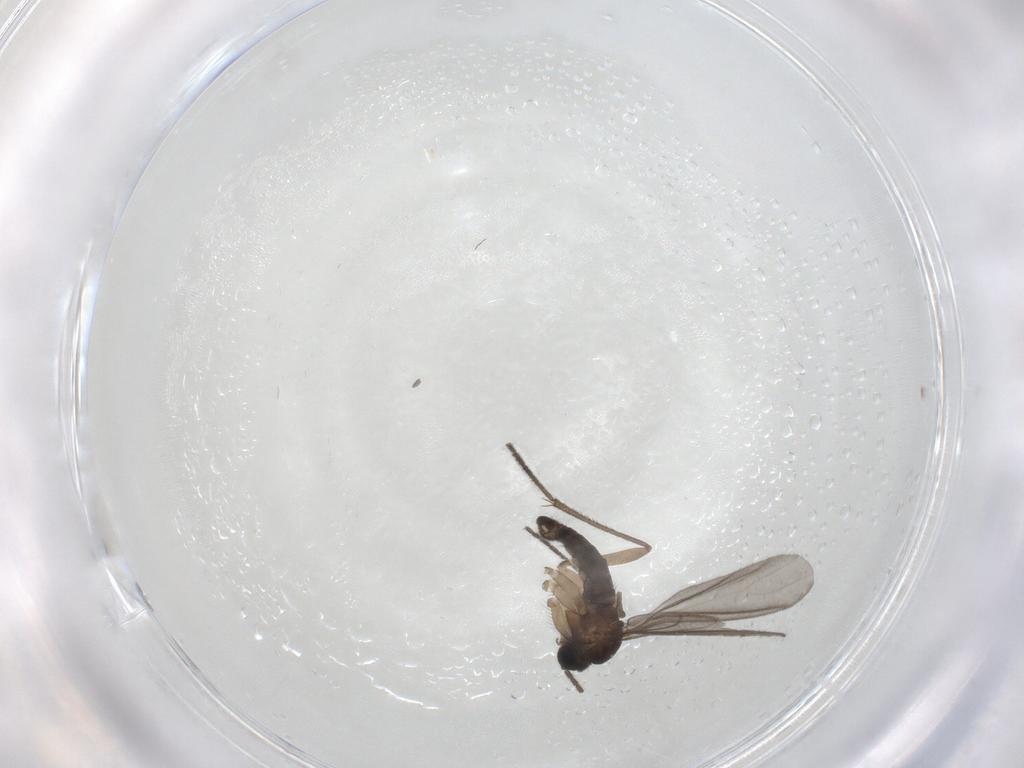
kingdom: Animalia
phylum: Arthropoda
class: Insecta
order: Diptera
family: Sciaridae
